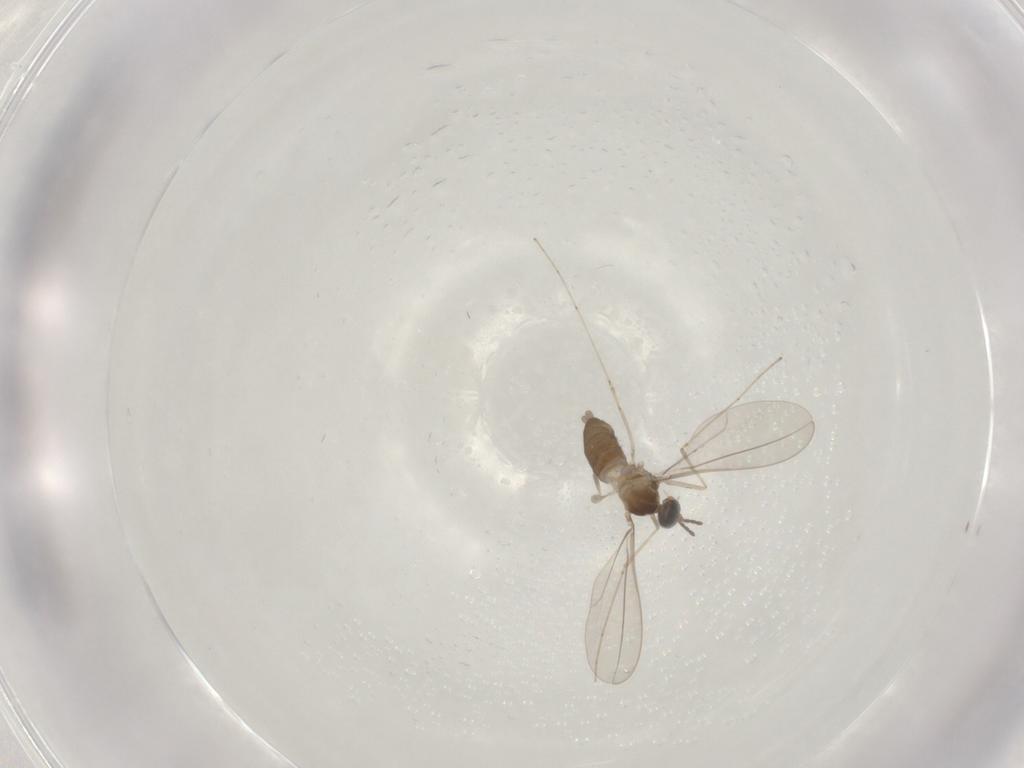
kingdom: Animalia
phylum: Arthropoda
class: Insecta
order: Diptera
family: Cecidomyiidae
